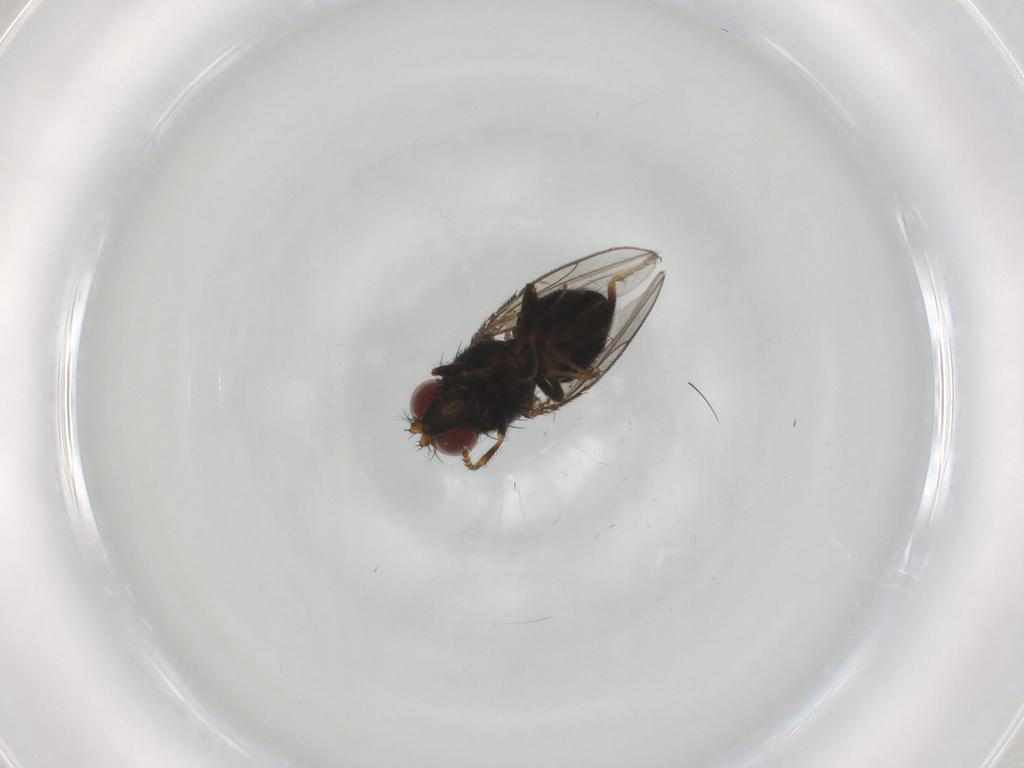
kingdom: Animalia
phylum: Arthropoda
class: Insecta
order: Diptera
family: Ephydridae
